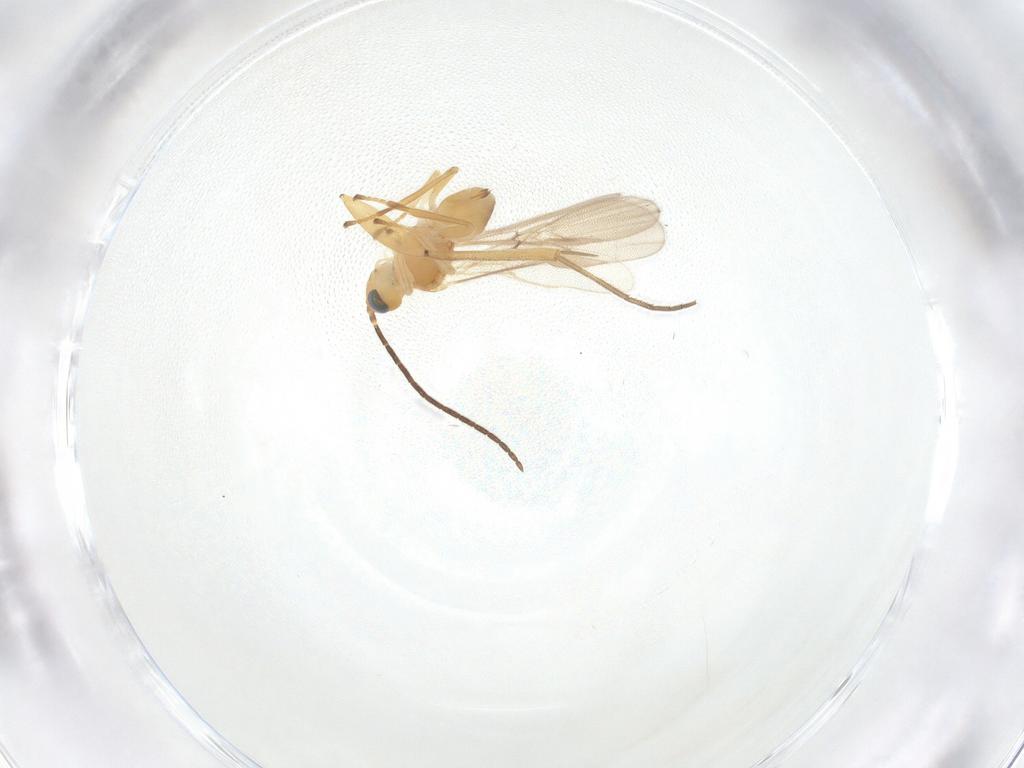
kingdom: Animalia
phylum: Arthropoda
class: Insecta
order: Hymenoptera
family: Braconidae
